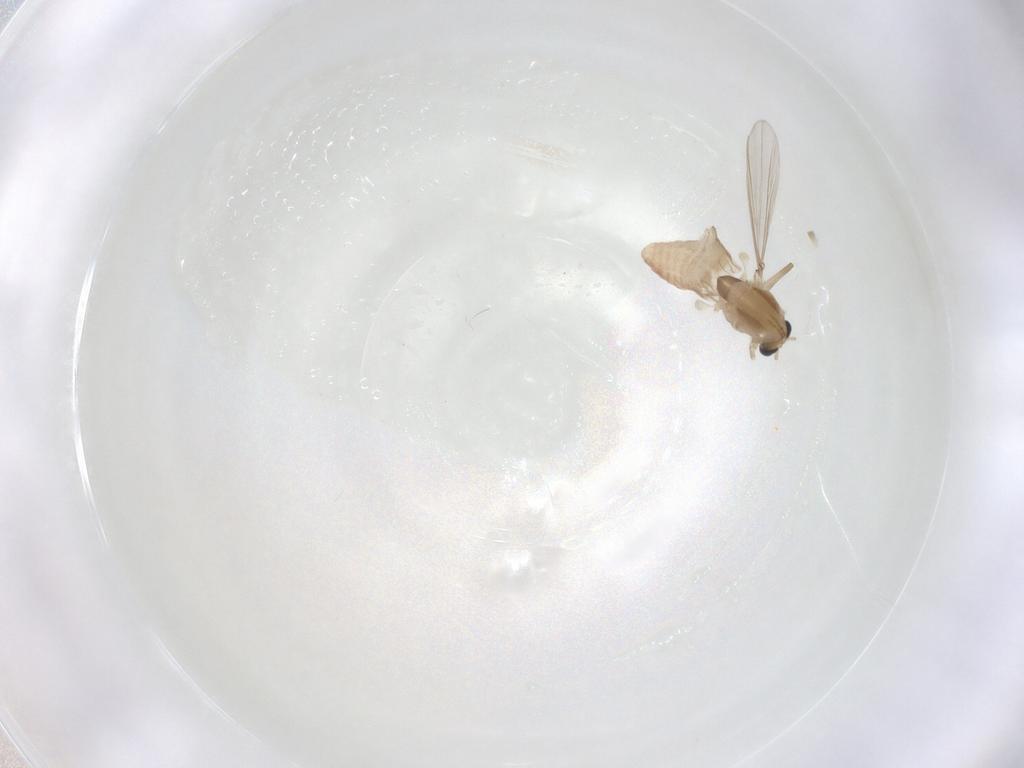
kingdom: Animalia
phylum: Arthropoda
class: Insecta
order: Diptera
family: Chironomidae
